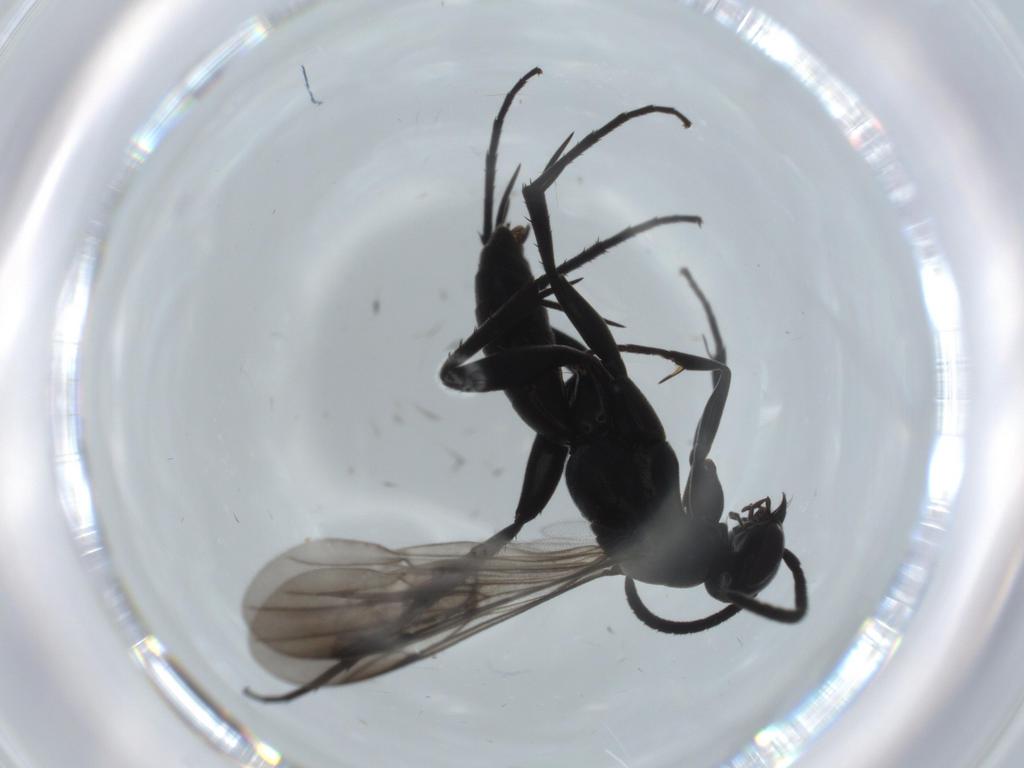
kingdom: Animalia
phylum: Arthropoda
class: Insecta
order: Hymenoptera
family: Pompilidae
